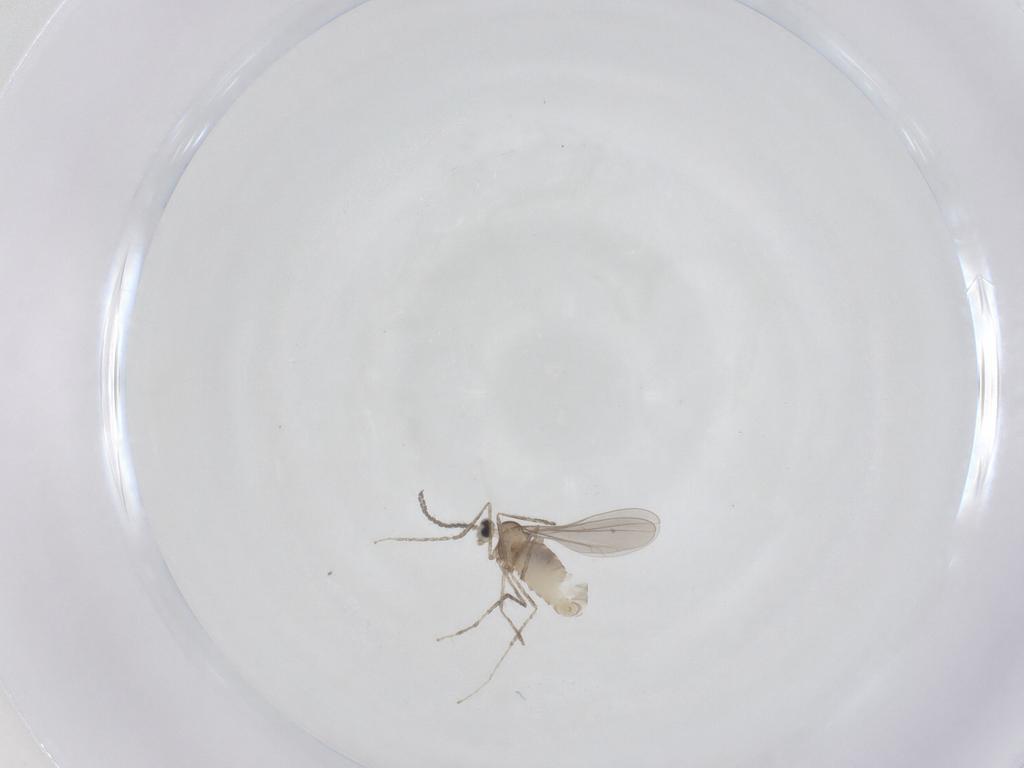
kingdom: Animalia
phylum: Arthropoda
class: Insecta
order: Diptera
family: Cecidomyiidae
